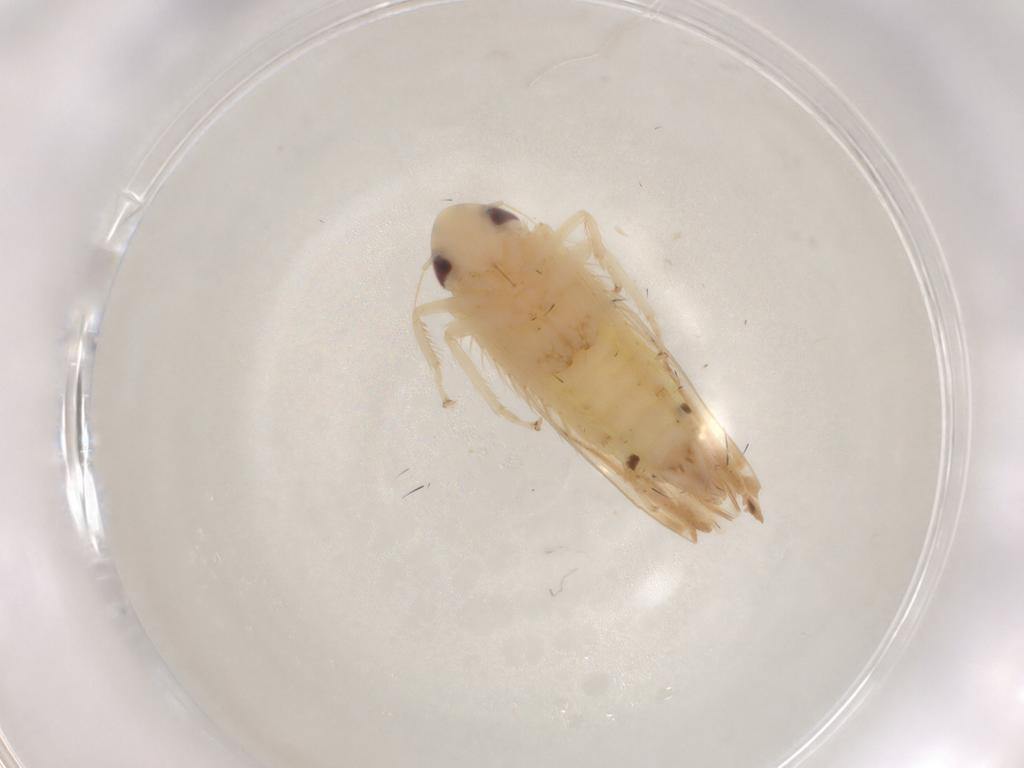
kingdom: Animalia
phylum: Arthropoda
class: Insecta
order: Hemiptera
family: Cicadellidae
